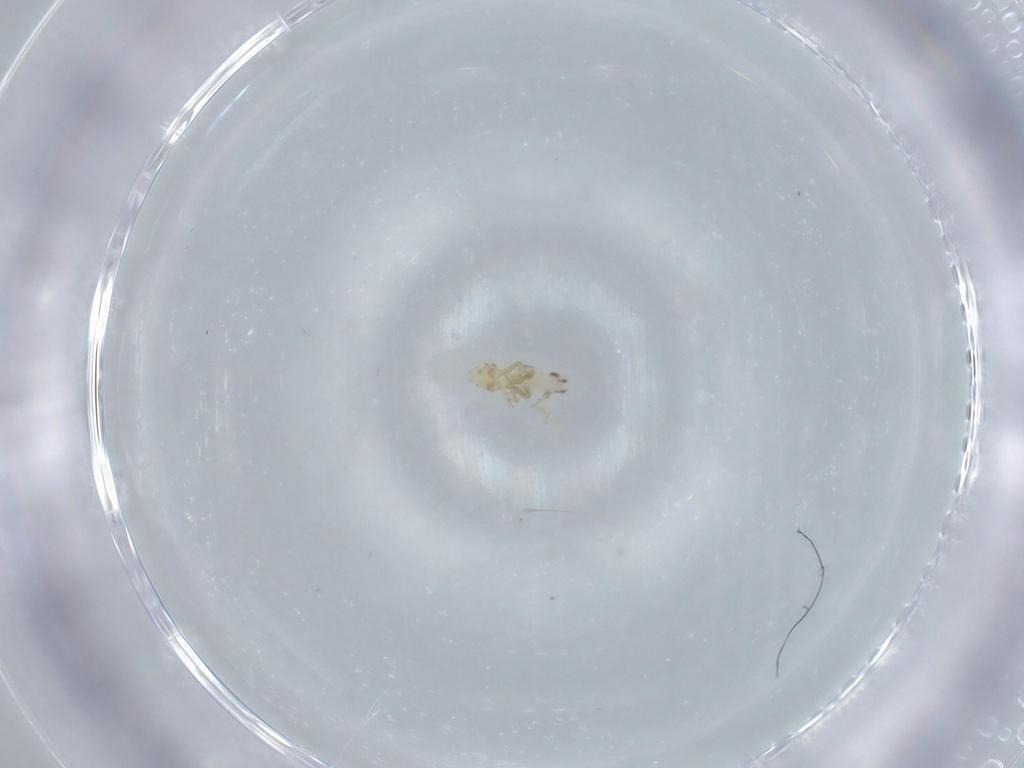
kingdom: Animalia
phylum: Arthropoda
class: Insecta
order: Hemiptera
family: Delphacidae
